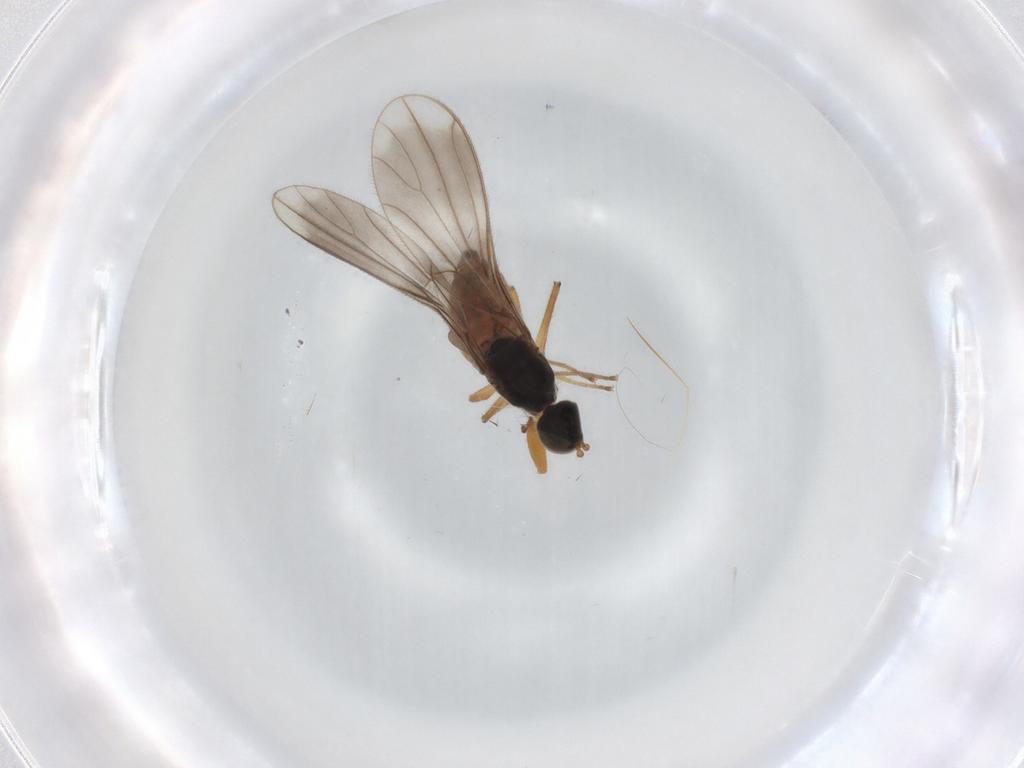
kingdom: Animalia
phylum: Arthropoda
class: Insecta
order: Diptera
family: Empididae
